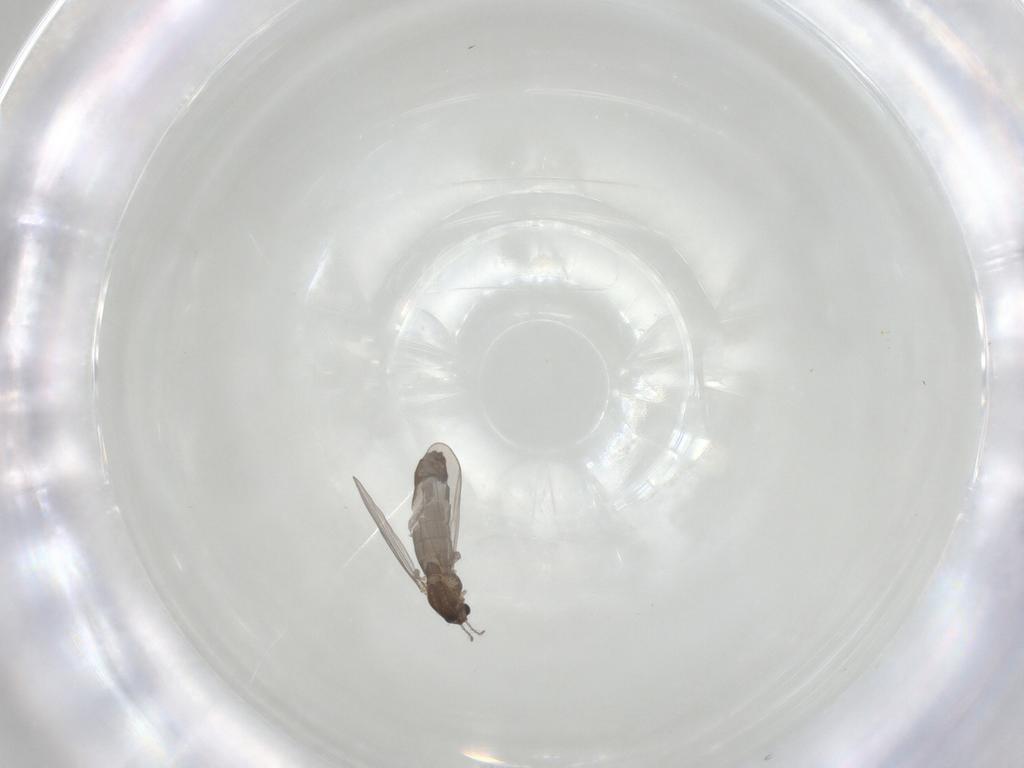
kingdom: Animalia
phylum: Arthropoda
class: Insecta
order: Diptera
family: Chironomidae
